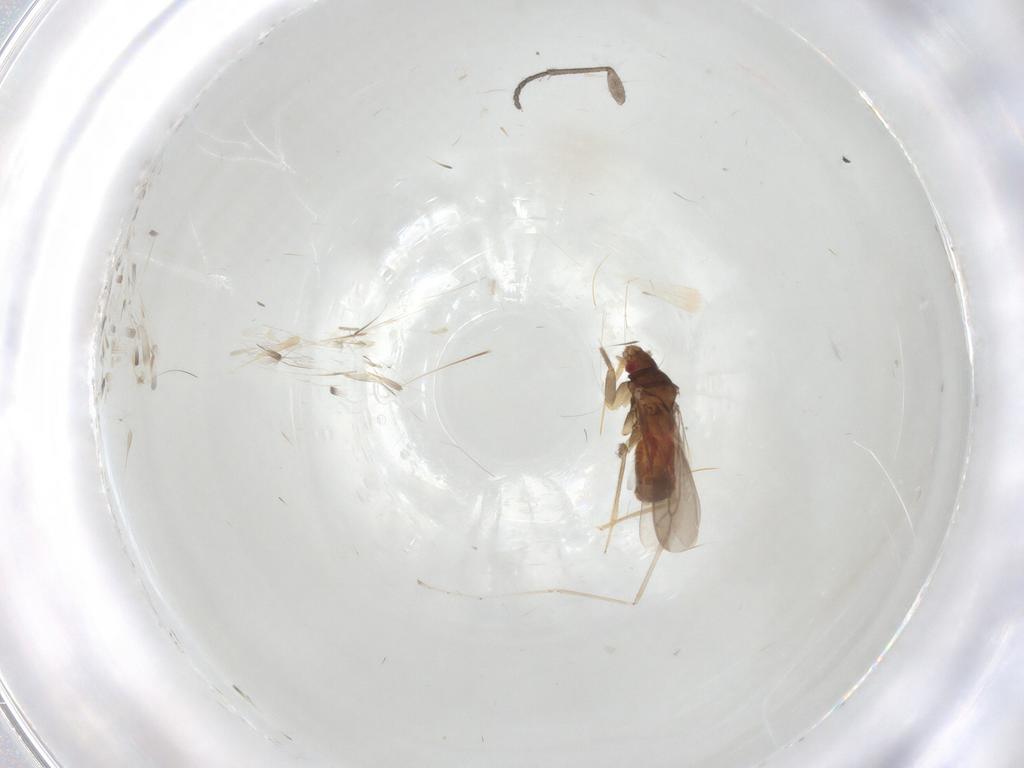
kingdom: Animalia
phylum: Arthropoda
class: Insecta
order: Hemiptera
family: Ceratocombidae
